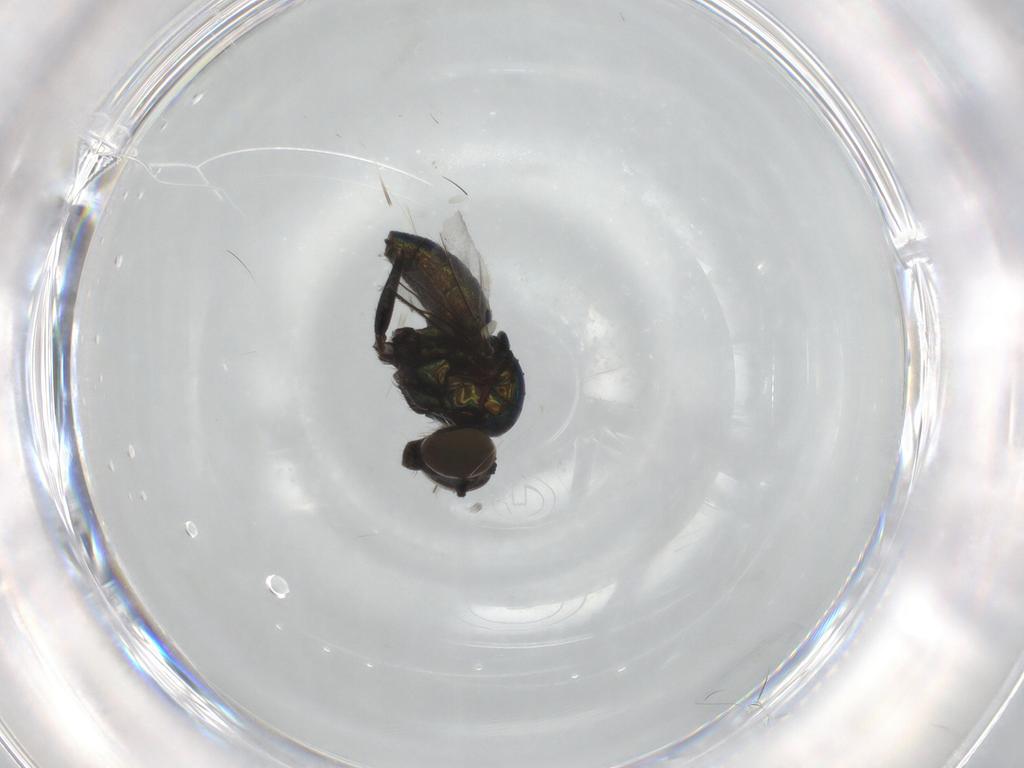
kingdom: Animalia
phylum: Arthropoda
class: Insecta
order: Diptera
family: Dolichopodidae
